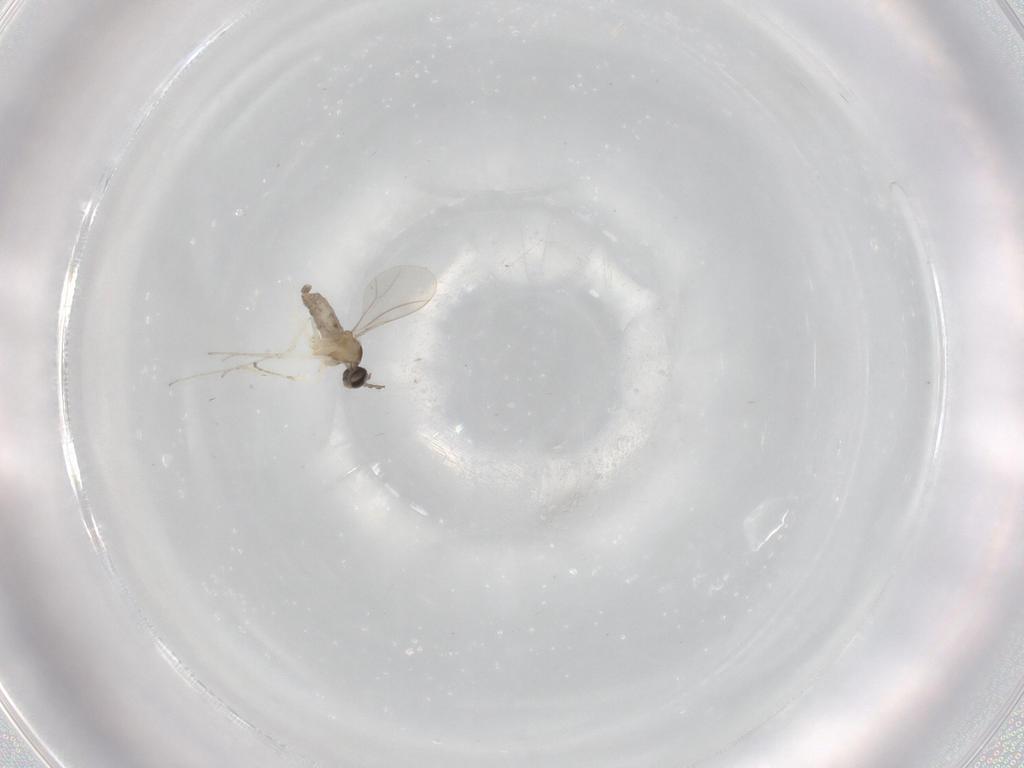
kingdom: Animalia
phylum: Arthropoda
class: Insecta
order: Diptera
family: Cecidomyiidae
